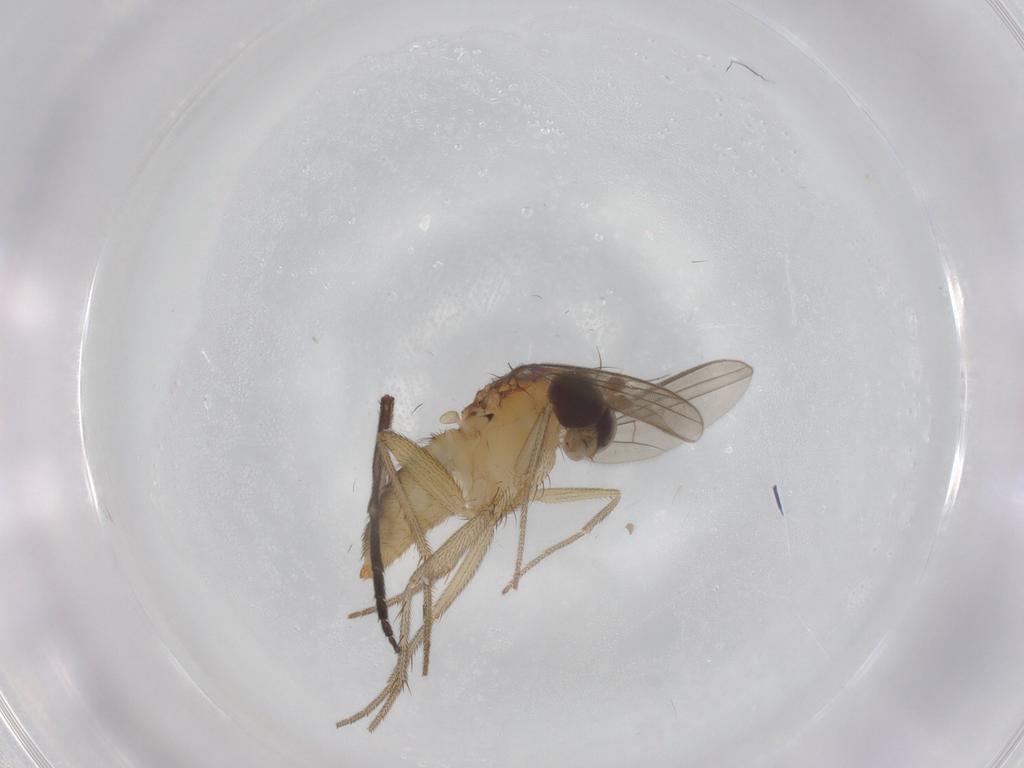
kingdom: Animalia
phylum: Arthropoda
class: Insecta
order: Diptera
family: Dolichopodidae
